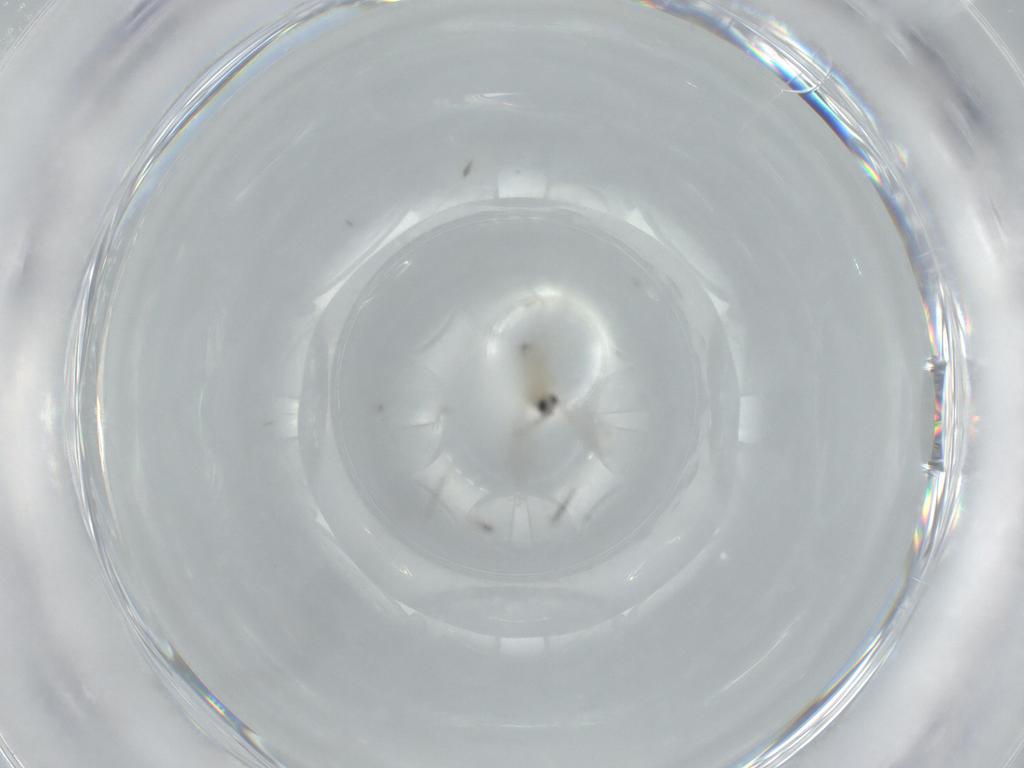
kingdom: Animalia
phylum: Arthropoda
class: Insecta
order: Diptera
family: Cecidomyiidae
